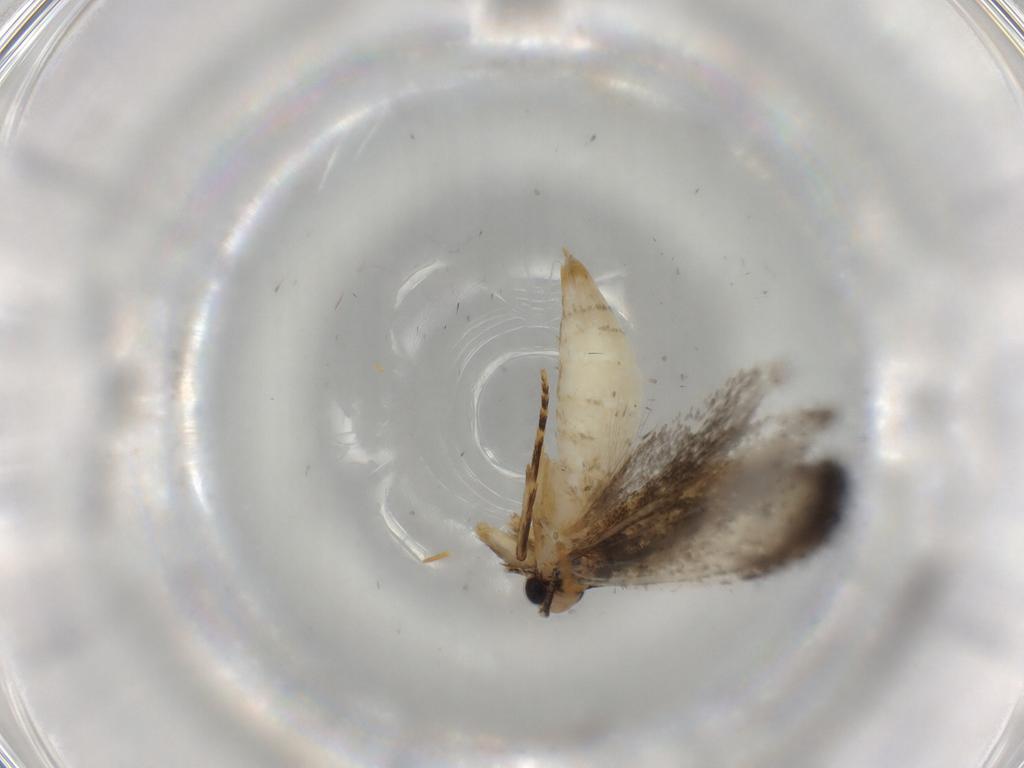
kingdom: Animalia
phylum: Arthropoda
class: Insecta
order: Lepidoptera
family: Tineidae
